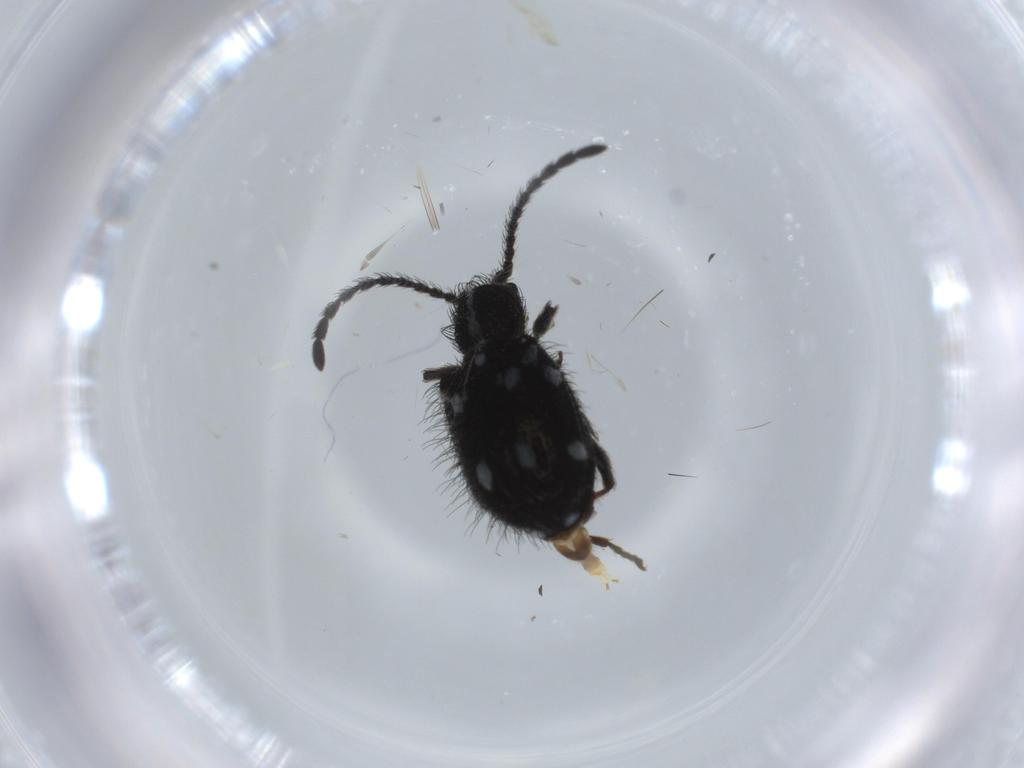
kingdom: Animalia
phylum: Arthropoda
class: Insecta
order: Coleoptera
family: Ptinidae
